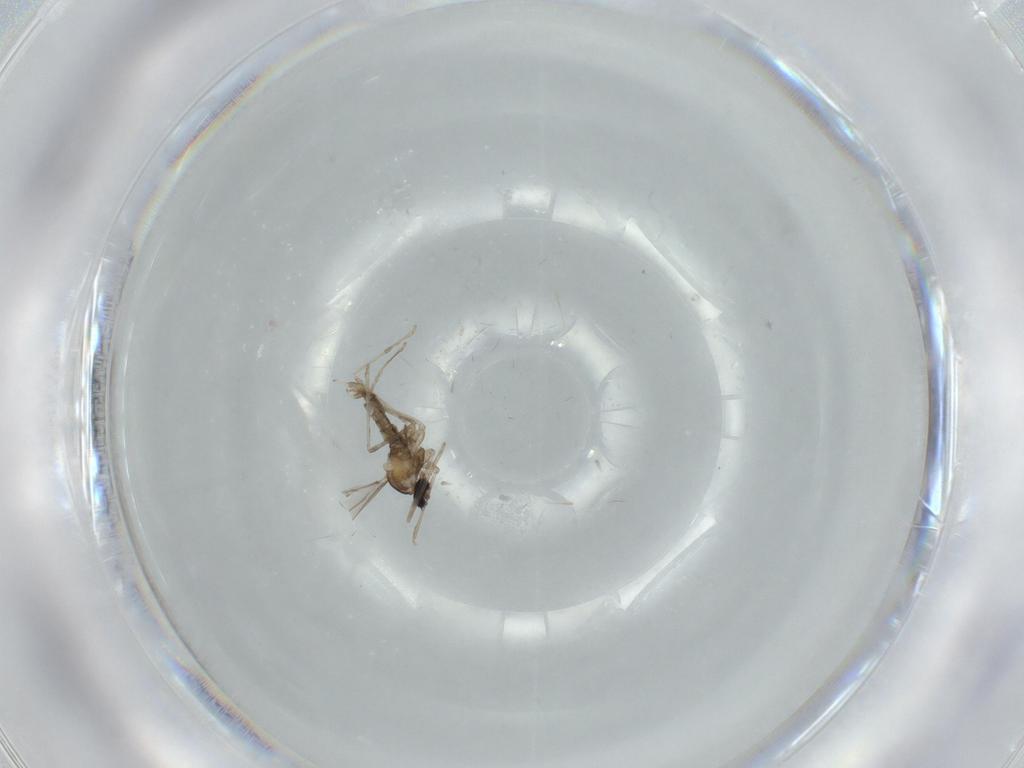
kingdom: Animalia
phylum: Arthropoda
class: Insecta
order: Diptera
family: Cecidomyiidae
